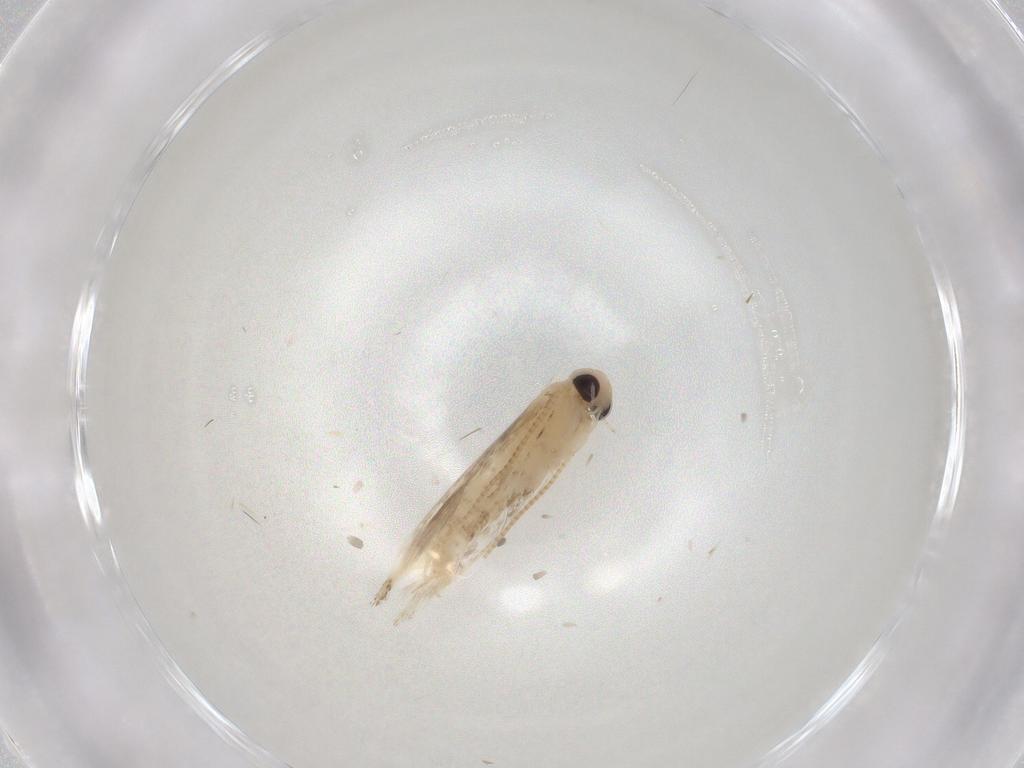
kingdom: Animalia
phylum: Arthropoda
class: Insecta
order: Lepidoptera
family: Gracillariidae
